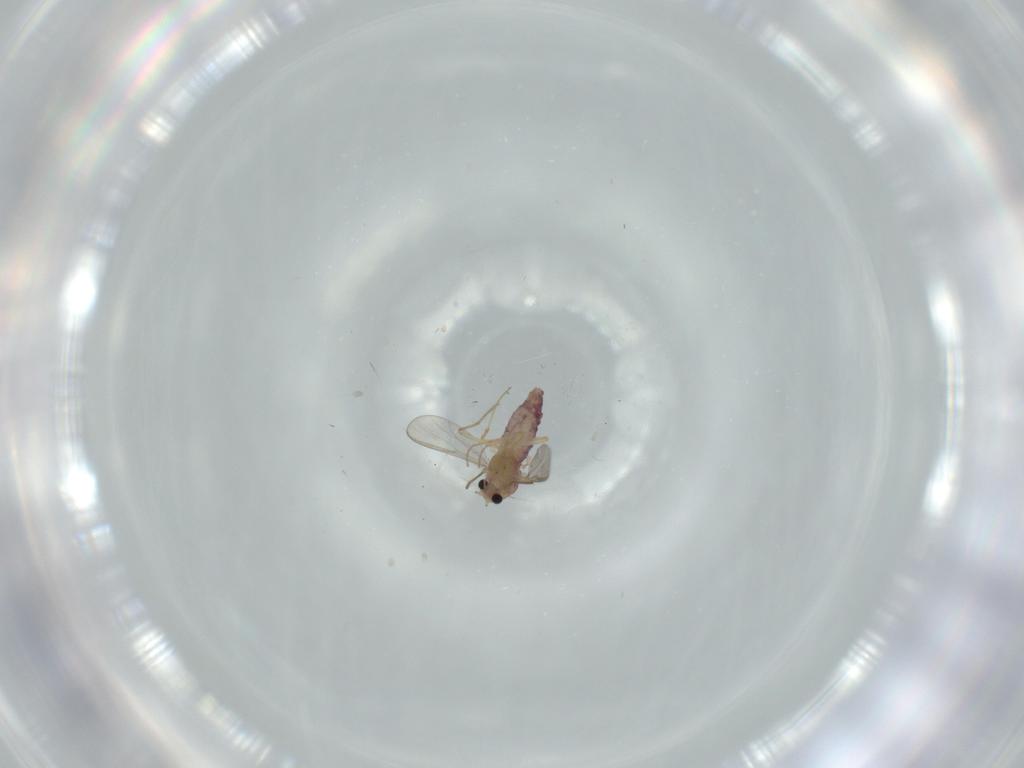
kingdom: Animalia
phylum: Arthropoda
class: Insecta
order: Diptera
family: Chironomidae
